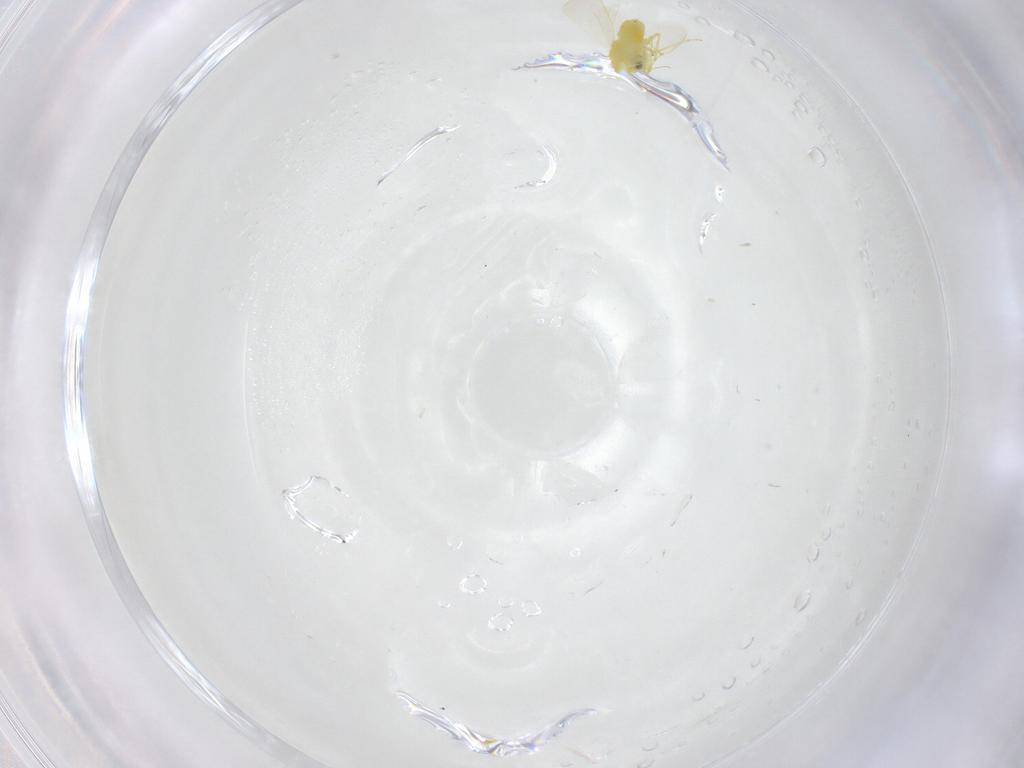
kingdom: Animalia
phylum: Arthropoda
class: Insecta
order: Hemiptera
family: Aleyrodidae
